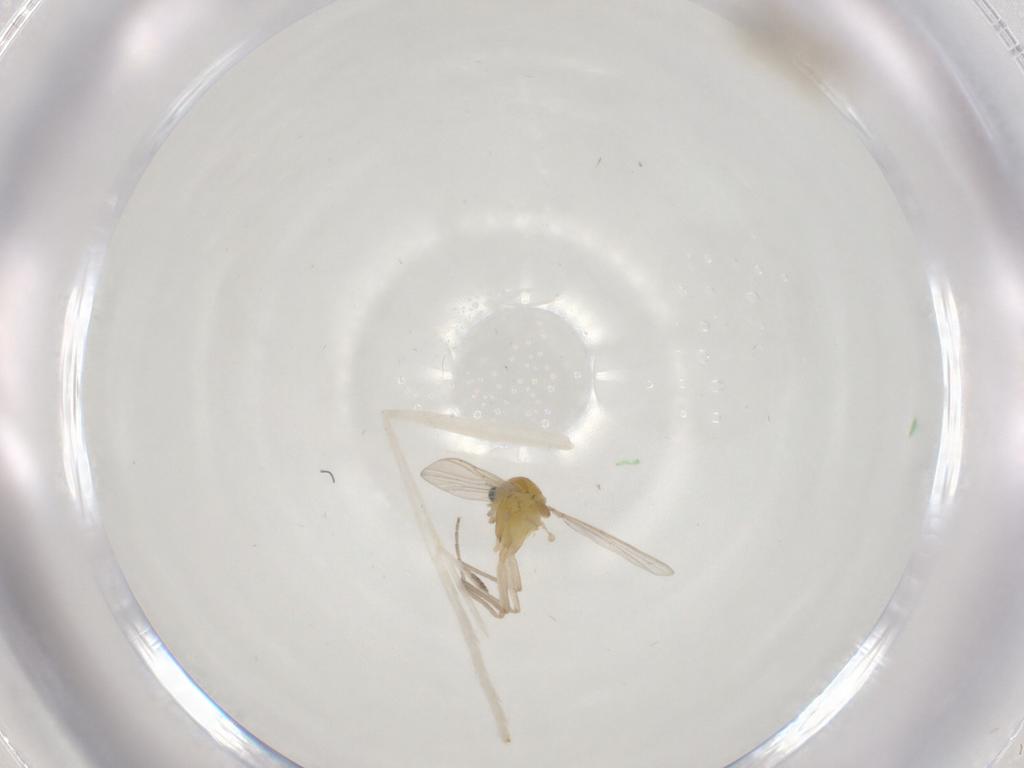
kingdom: Animalia
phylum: Arthropoda
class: Insecta
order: Diptera
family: Chironomidae
